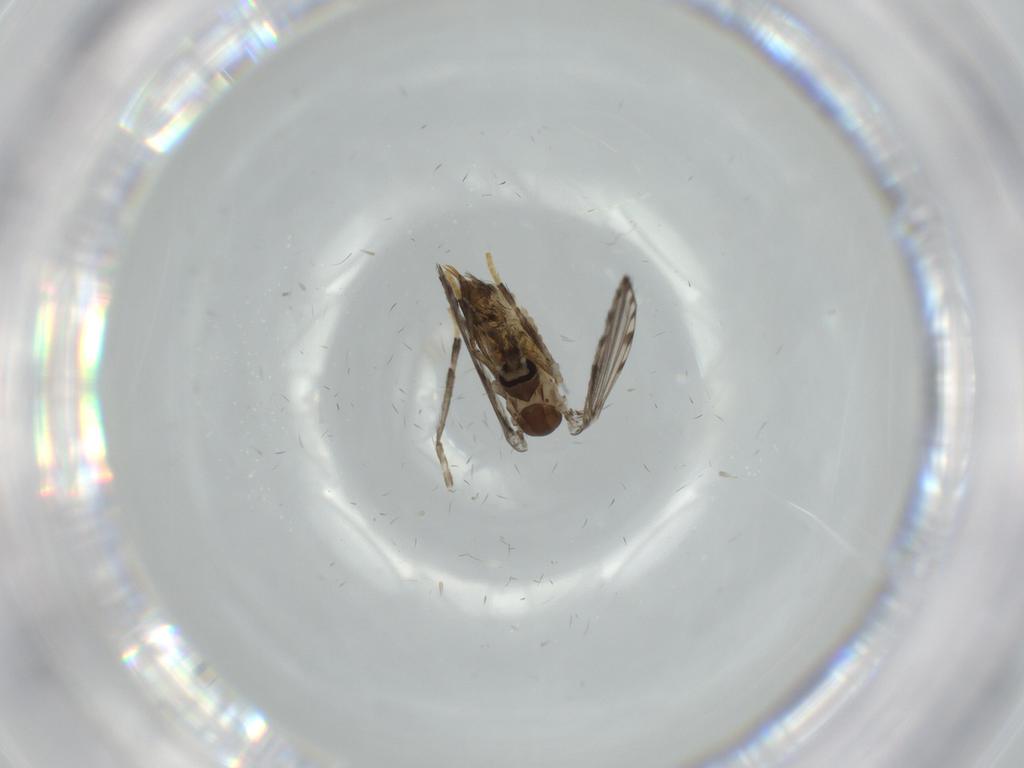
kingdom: Animalia
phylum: Arthropoda
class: Insecta
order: Diptera
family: Sciaridae
